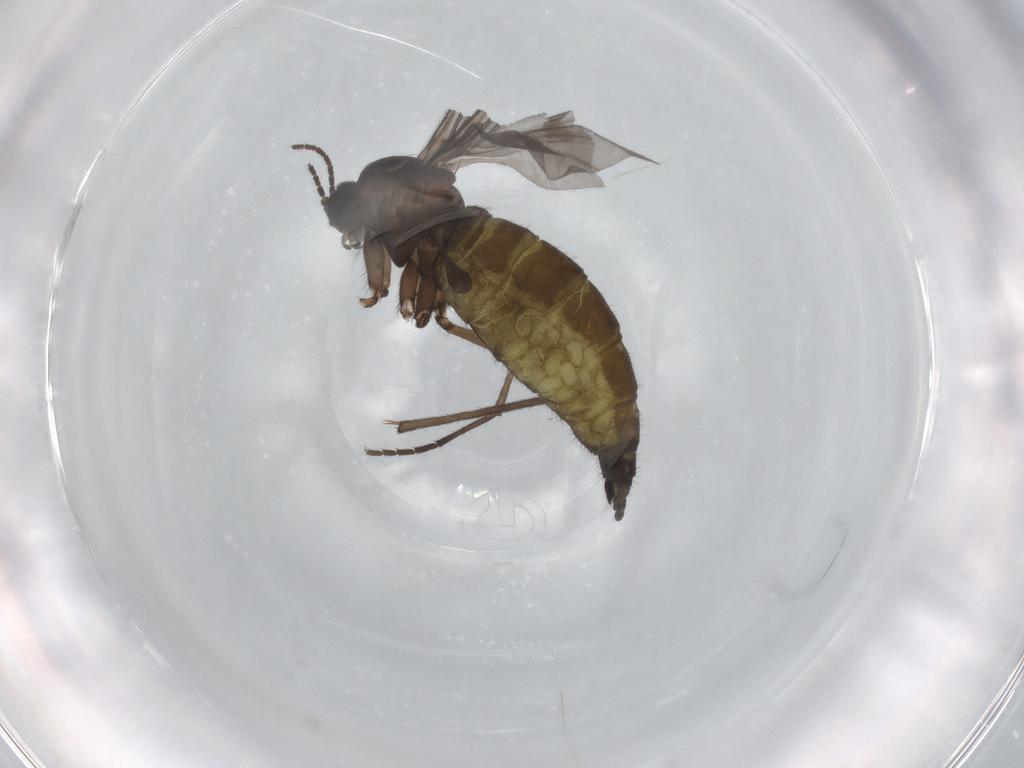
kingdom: Animalia
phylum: Arthropoda
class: Insecta
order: Diptera
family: Sciaridae
